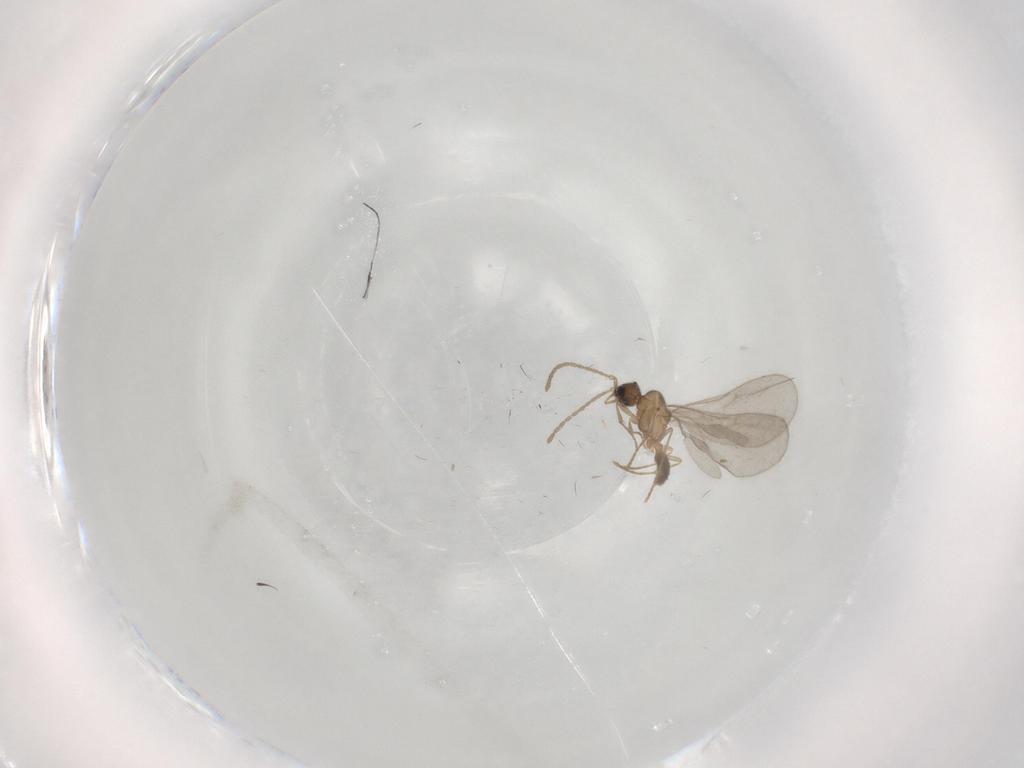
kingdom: Animalia
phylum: Arthropoda
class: Insecta
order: Hymenoptera
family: Formicidae
